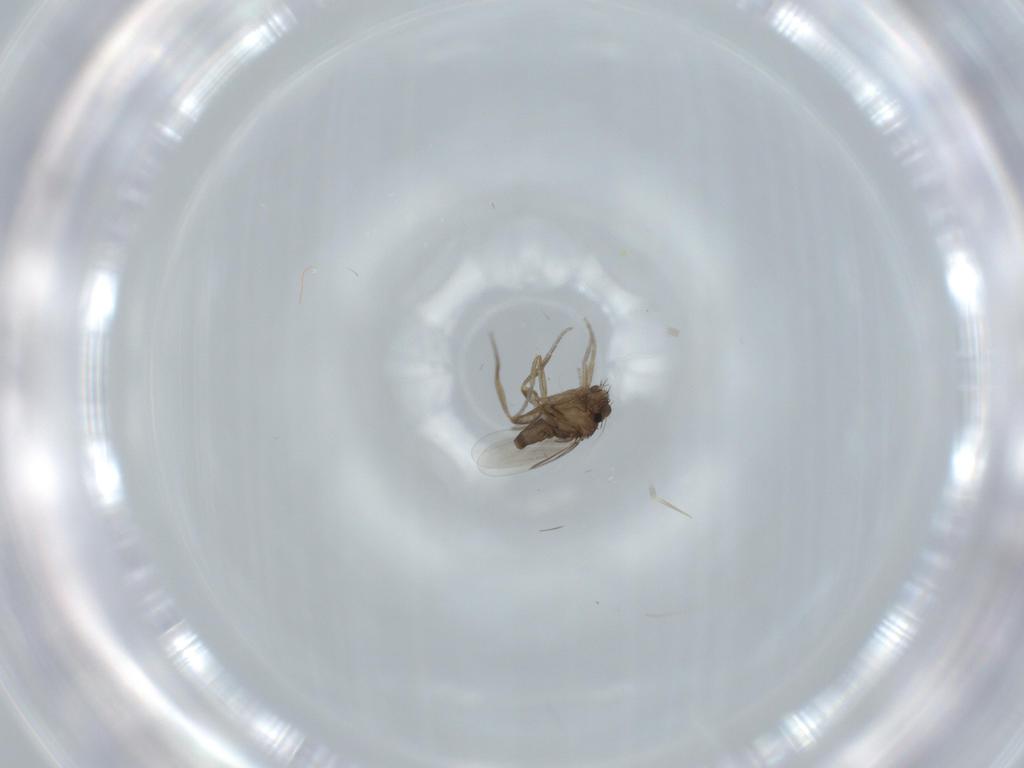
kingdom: Animalia
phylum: Arthropoda
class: Insecta
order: Diptera
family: Phoridae
